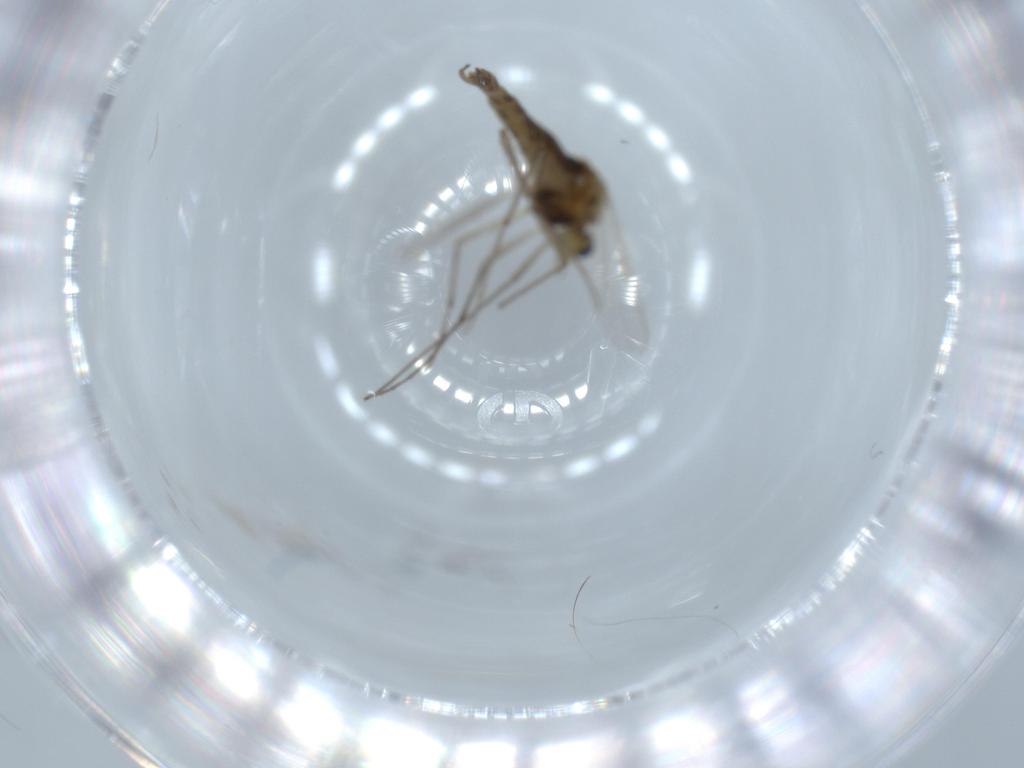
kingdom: Animalia
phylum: Arthropoda
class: Insecta
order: Diptera
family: Chironomidae
